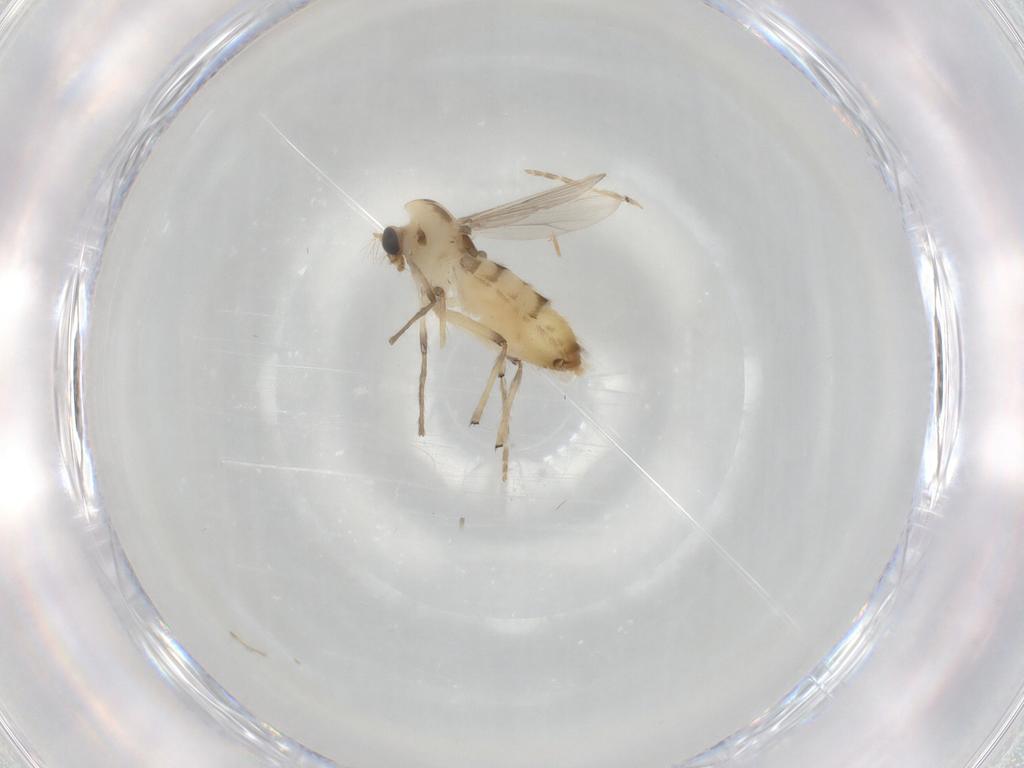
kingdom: Animalia
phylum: Arthropoda
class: Insecta
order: Diptera
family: Chironomidae
